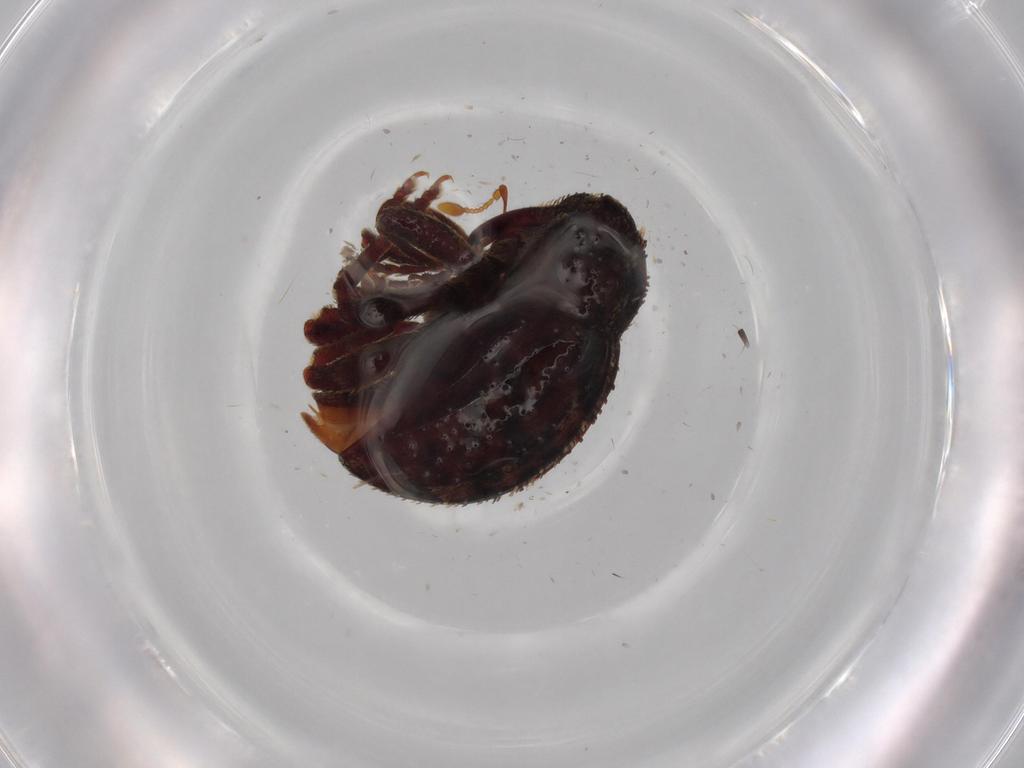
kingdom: Animalia
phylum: Arthropoda
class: Insecta
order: Coleoptera
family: Curculionidae
